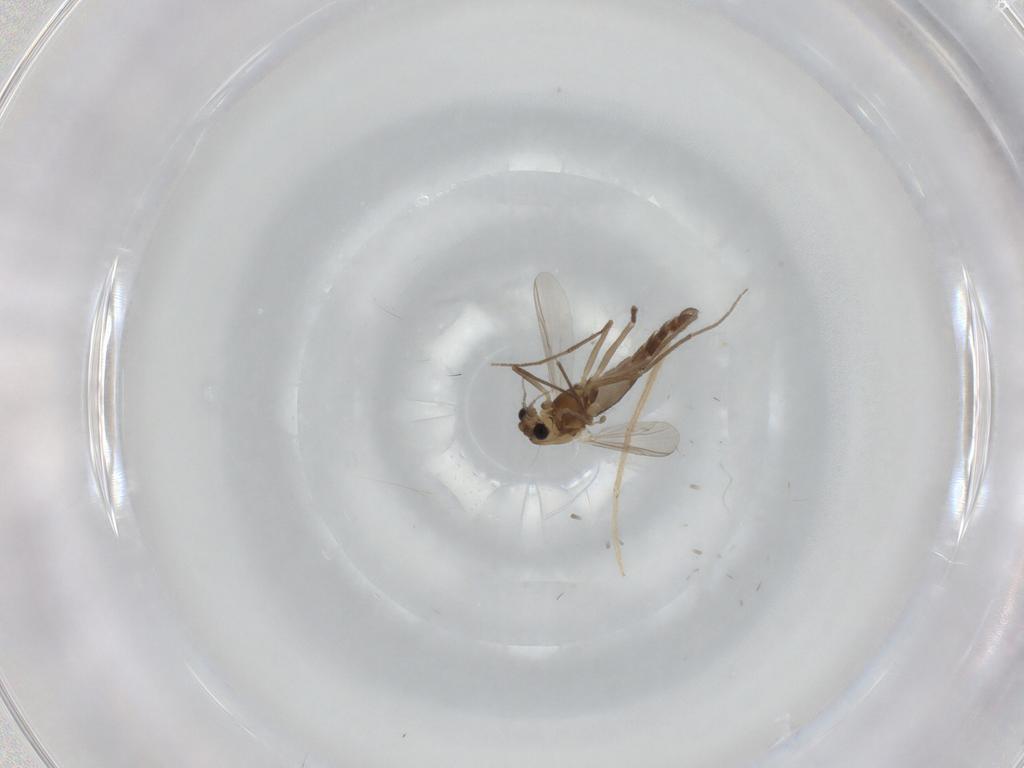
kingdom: Animalia
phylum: Arthropoda
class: Insecta
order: Diptera
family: Chironomidae
